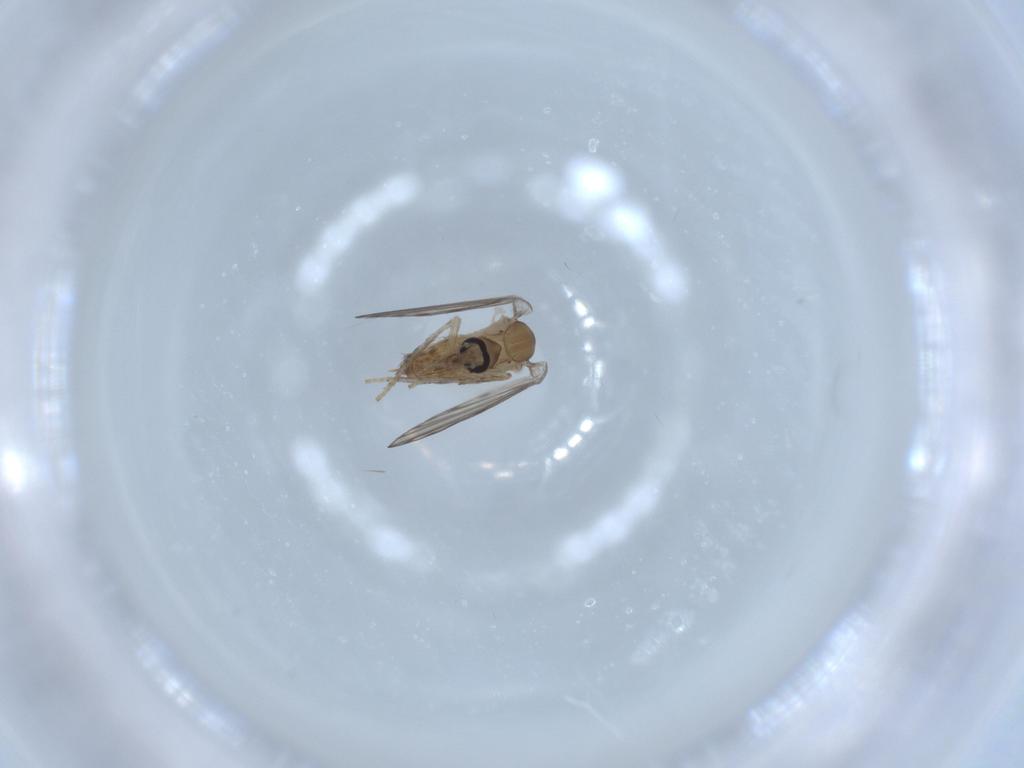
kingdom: Animalia
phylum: Arthropoda
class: Insecta
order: Diptera
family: Psychodidae
